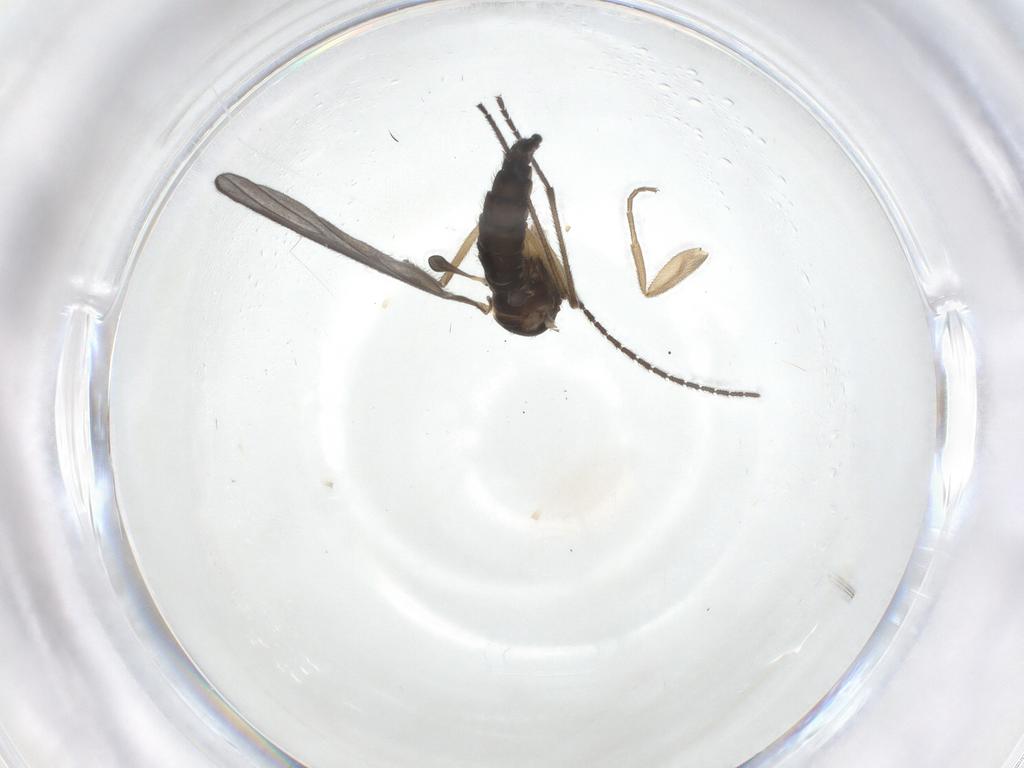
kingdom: Animalia
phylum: Arthropoda
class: Insecta
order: Diptera
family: Sciaridae
